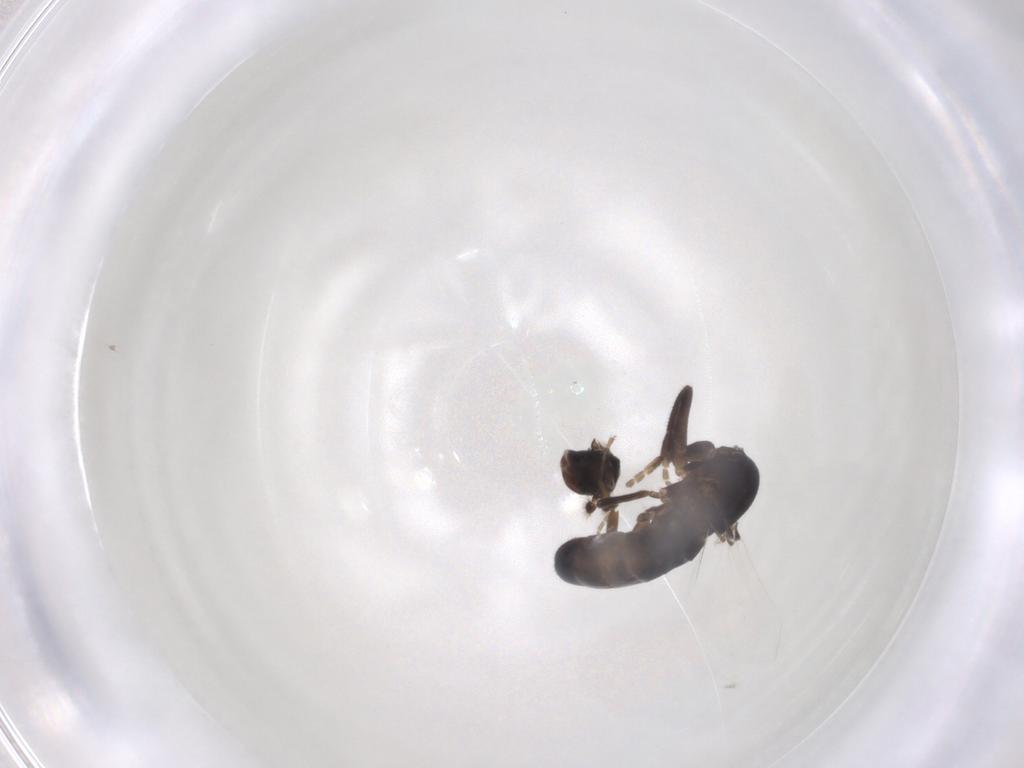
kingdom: Animalia
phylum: Arthropoda
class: Insecta
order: Diptera
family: Phoridae
